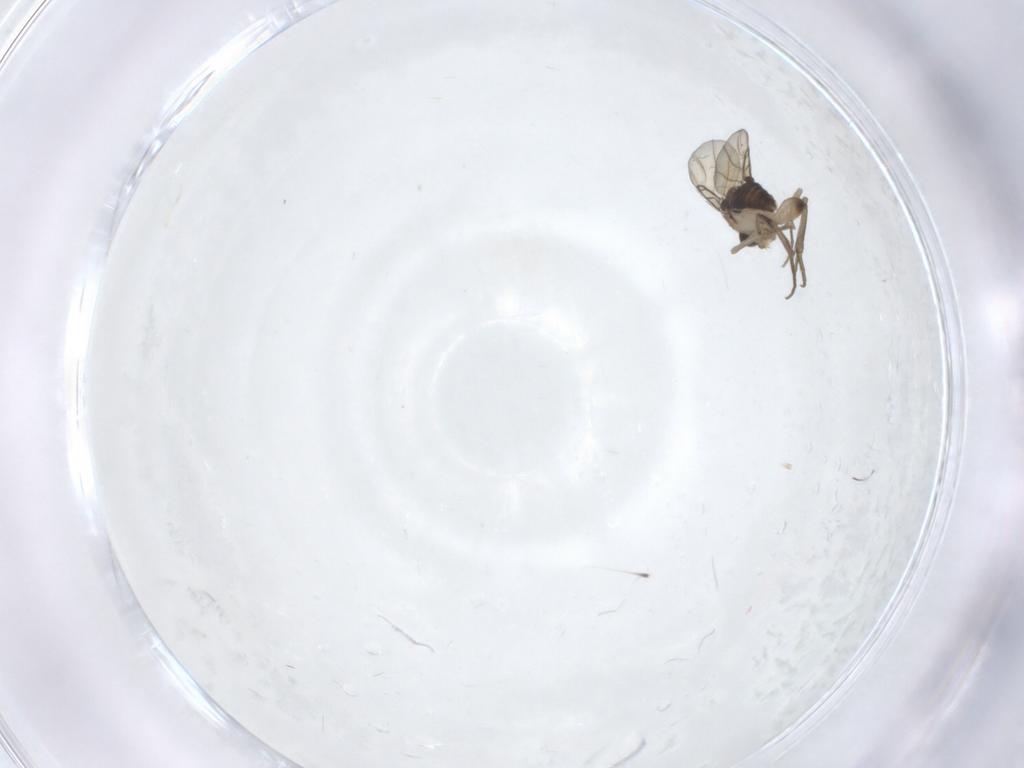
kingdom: Animalia
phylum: Arthropoda
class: Insecta
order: Diptera
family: Phoridae
